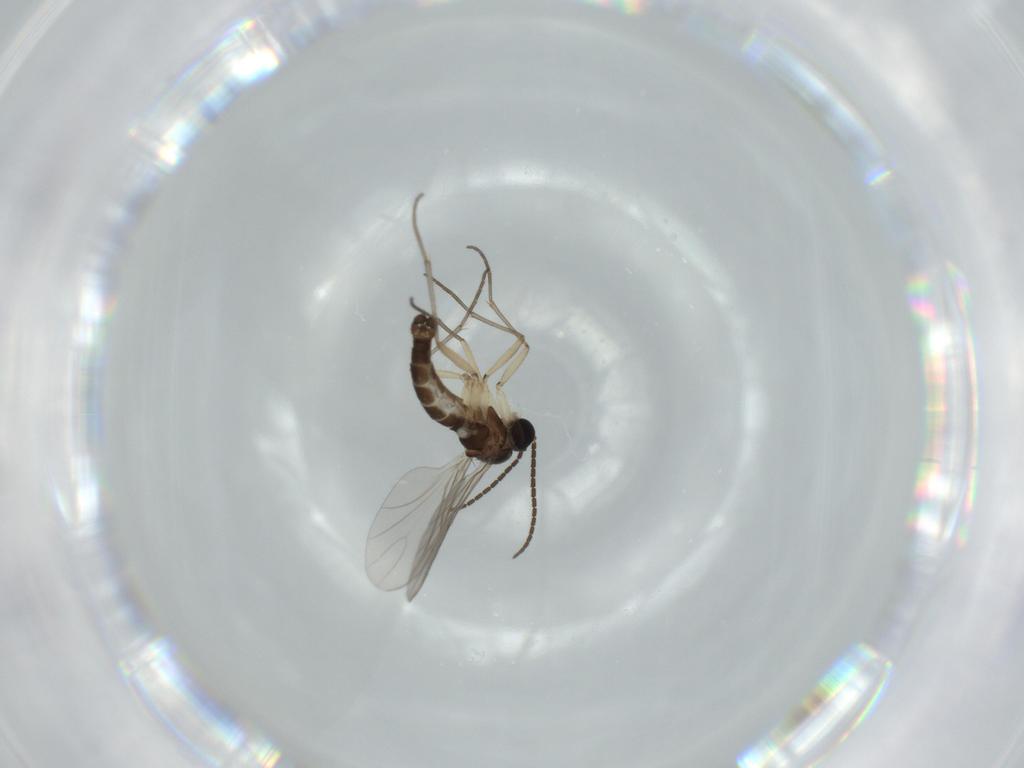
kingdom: Animalia
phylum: Arthropoda
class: Insecta
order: Diptera
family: Sciaridae
